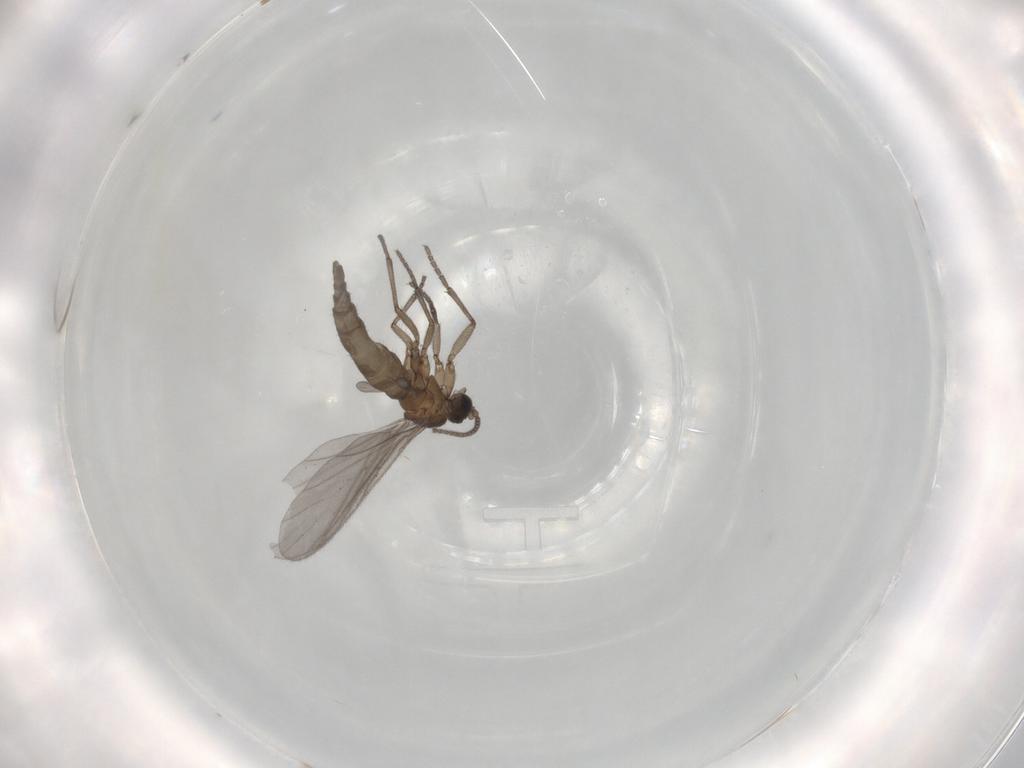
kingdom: Animalia
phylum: Arthropoda
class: Insecta
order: Diptera
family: Sciaridae
